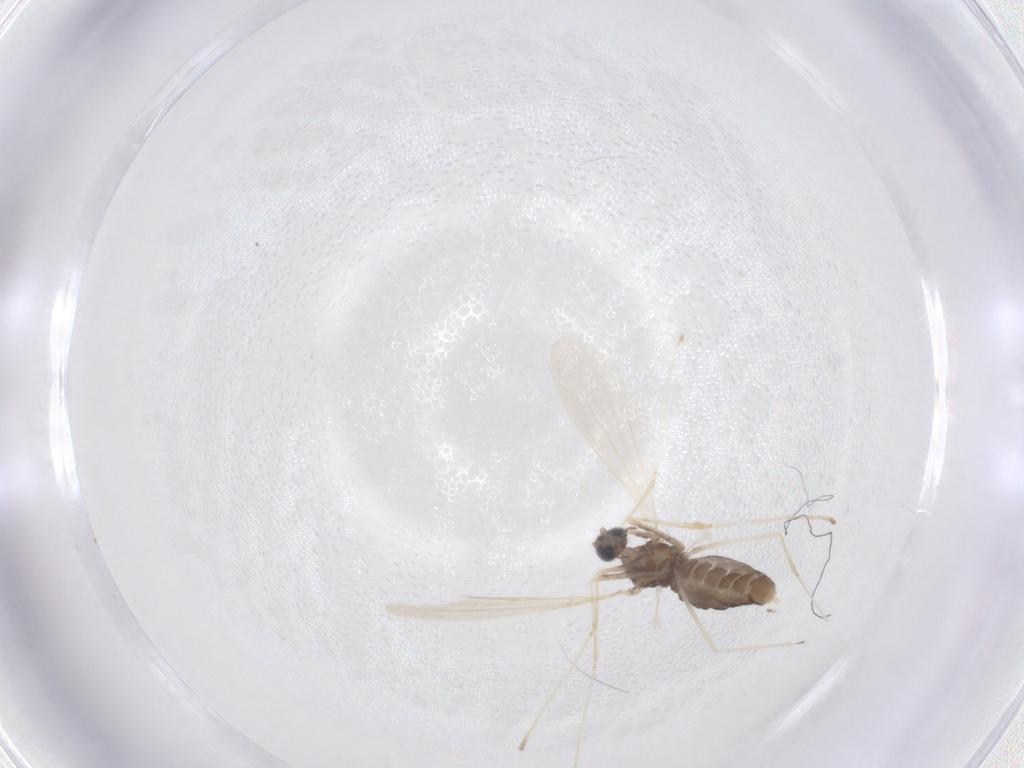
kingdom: Animalia
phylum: Arthropoda
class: Insecta
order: Diptera
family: Cecidomyiidae
